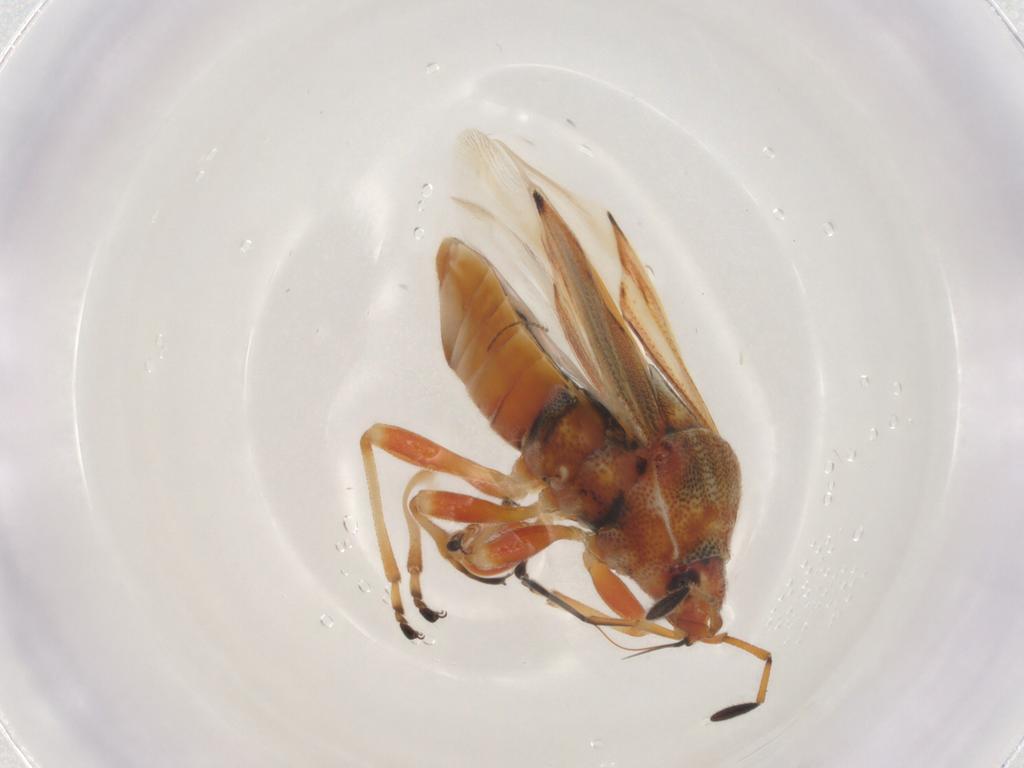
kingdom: Animalia
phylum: Arthropoda
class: Insecta
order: Hemiptera
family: Lygaeidae
